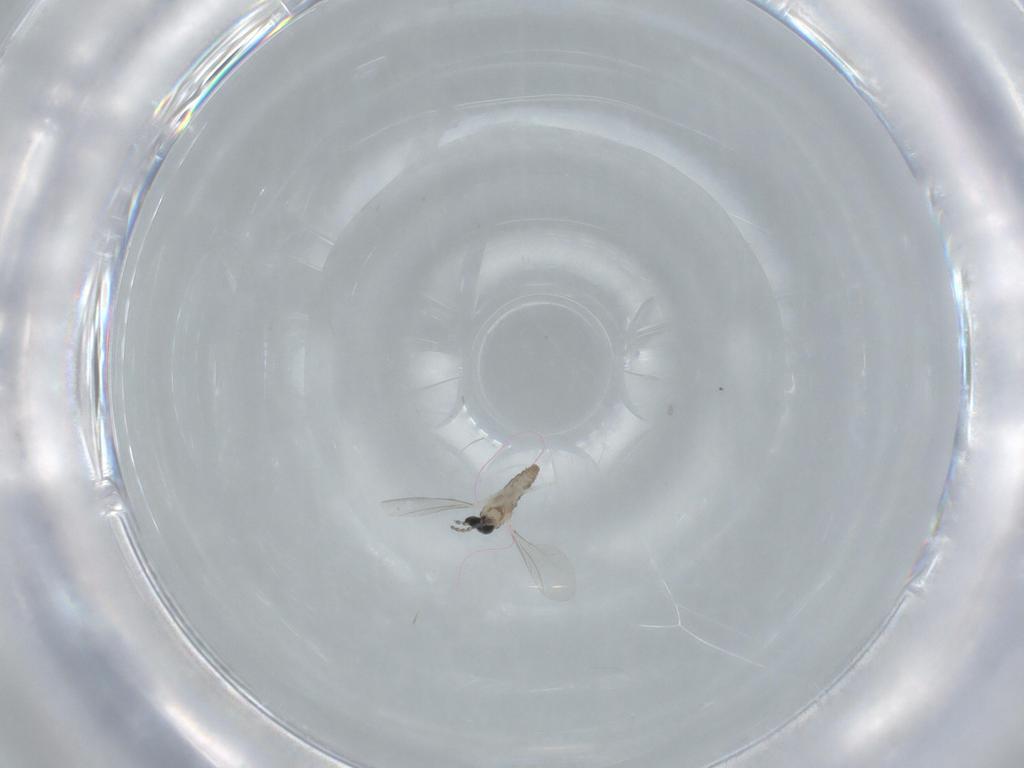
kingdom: Animalia
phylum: Arthropoda
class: Insecta
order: Diptera
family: Cecidomyiidae
